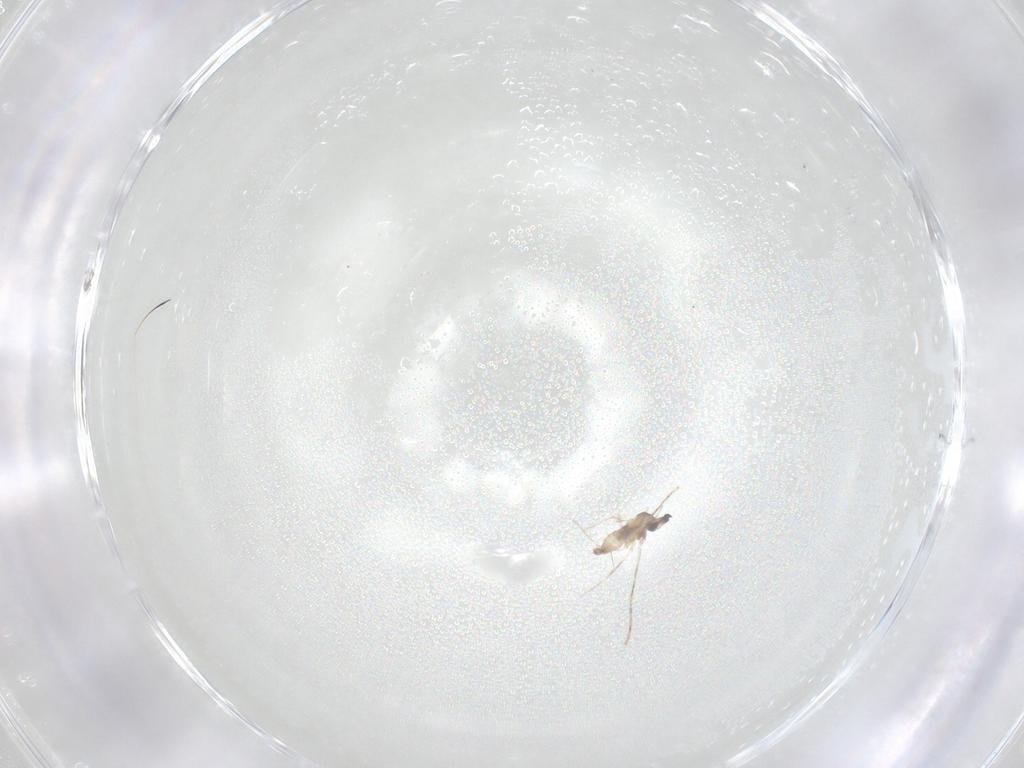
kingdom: Animalia
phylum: Arthropoda
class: Insecta
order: Diptera
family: Cecidomyiidae
